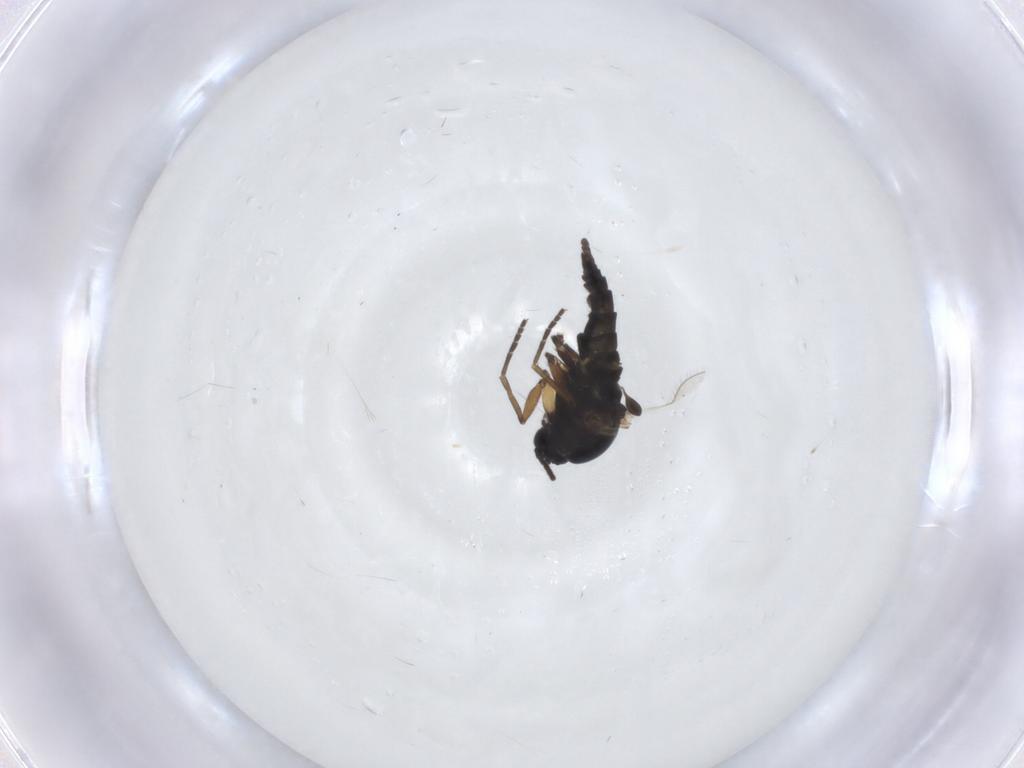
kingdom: Animalia
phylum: Arthropoda
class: Insecta
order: Diptera
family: Sciaridae
